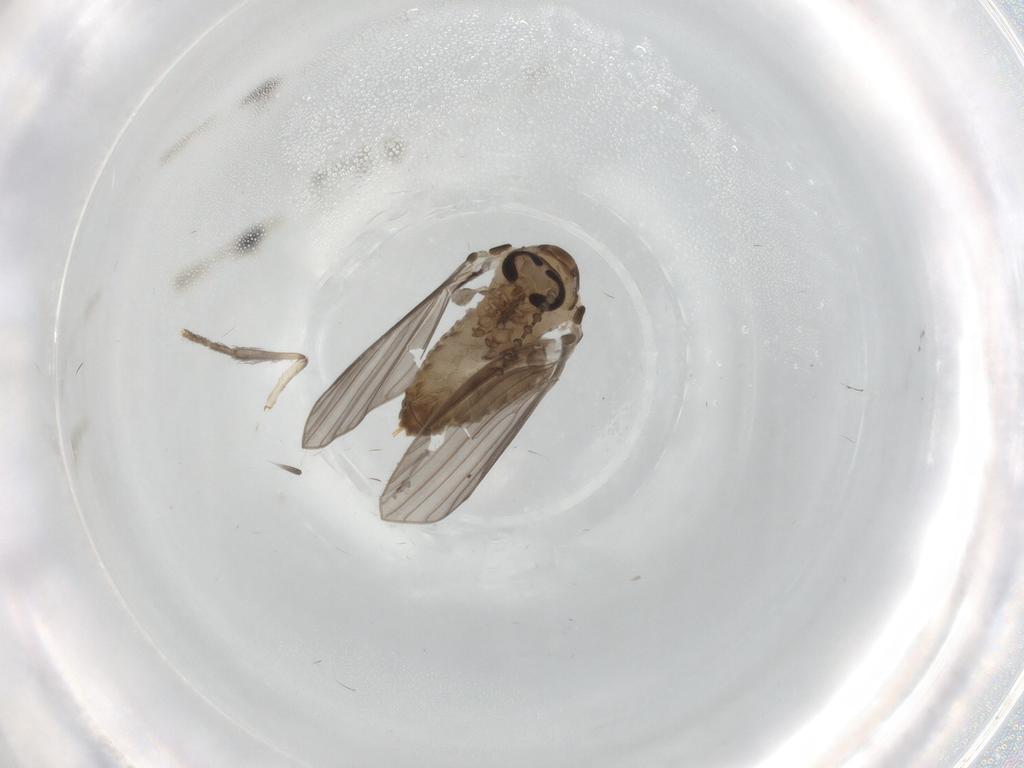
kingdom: Animalia
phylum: Arthropoda
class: Insecta
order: Diptera
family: Psychodidae
